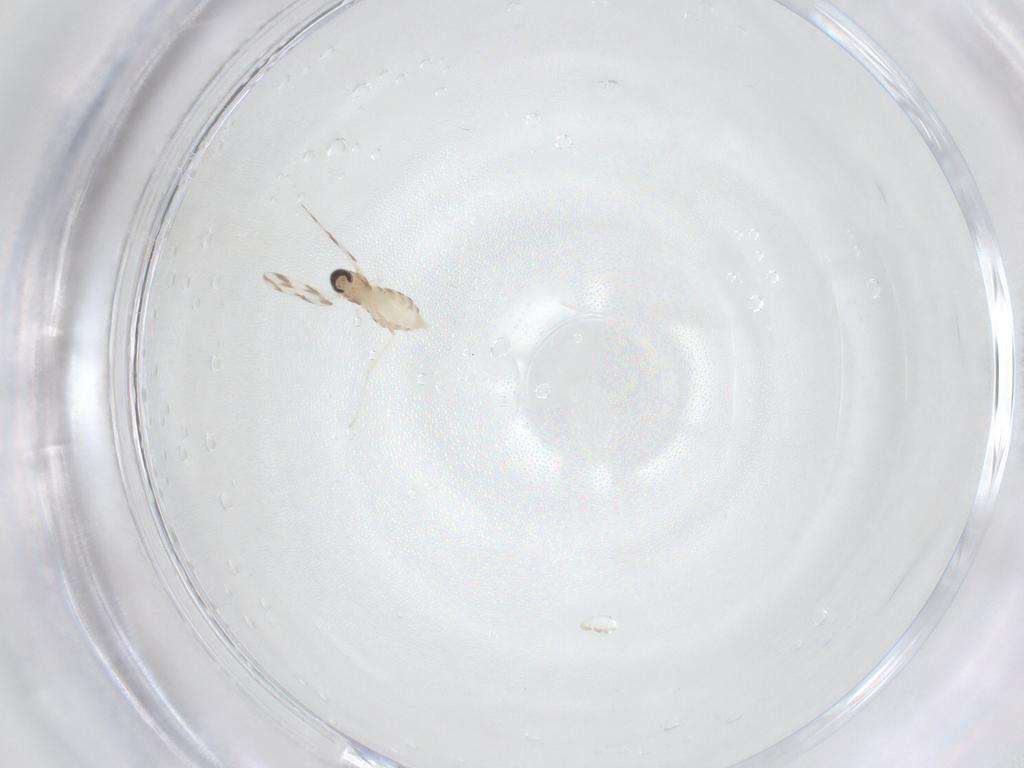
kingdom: Animalia
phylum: Arthropoda
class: Insecta
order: Diptera
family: Cecidomyiidae
